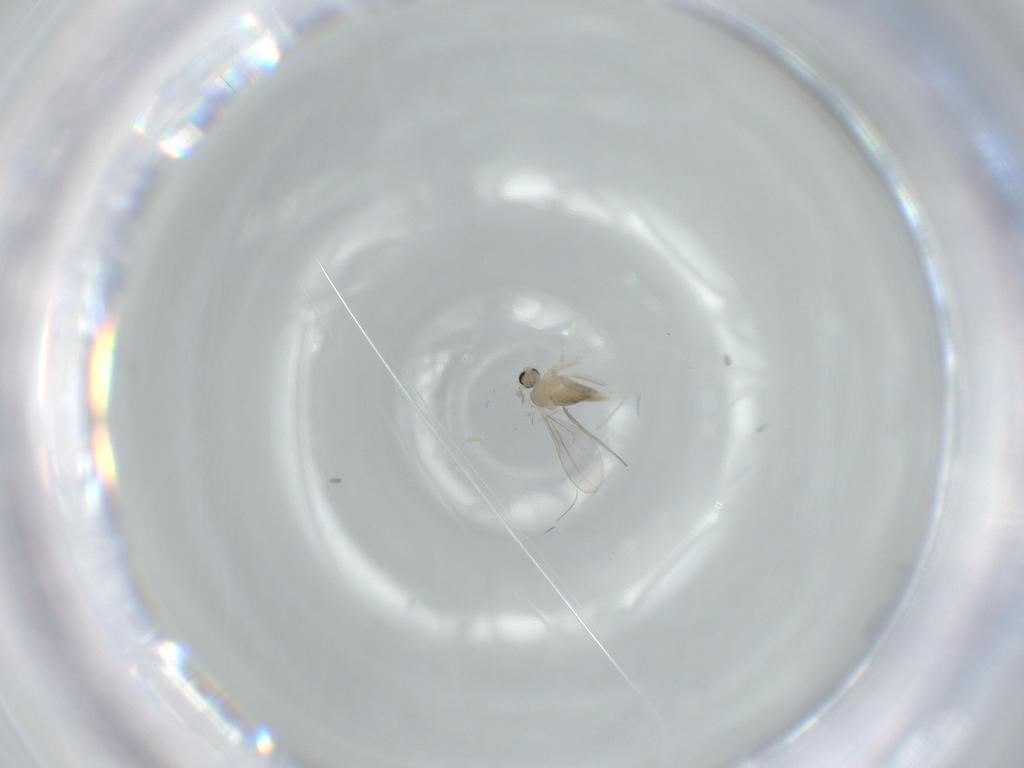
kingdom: Animalia
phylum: Arthropoda
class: Insecta
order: Diptera
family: Cecidomyiidae
